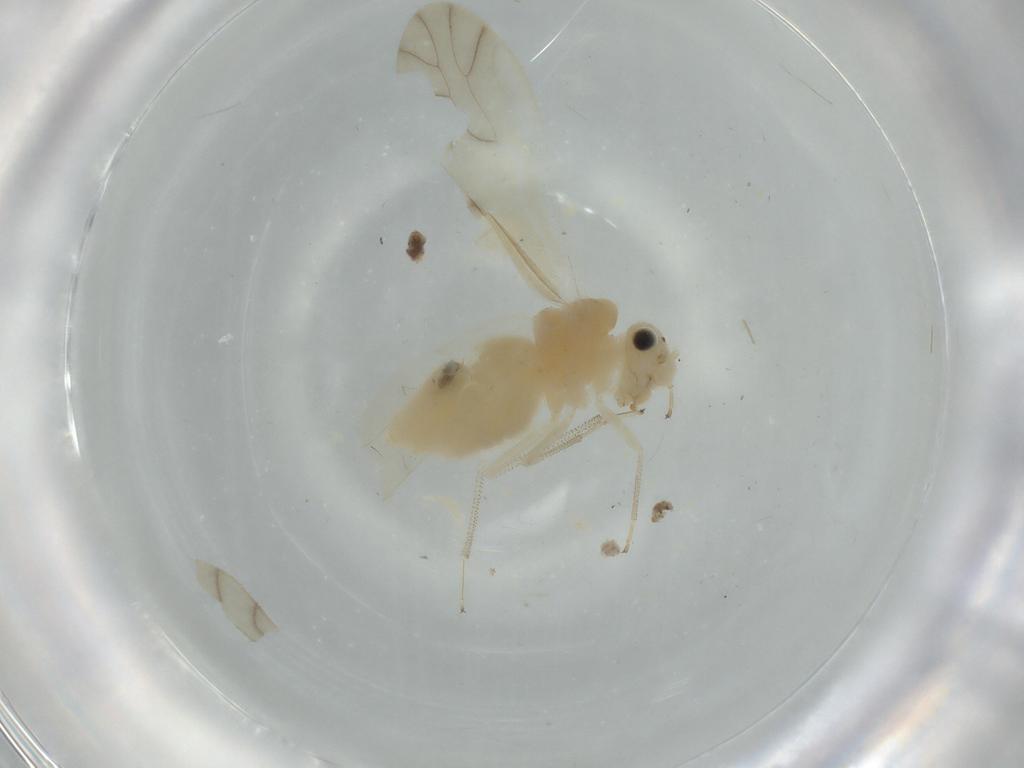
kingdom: Animalia
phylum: Arthropoda
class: Insecta
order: Psocodea
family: Caeciliusidae
